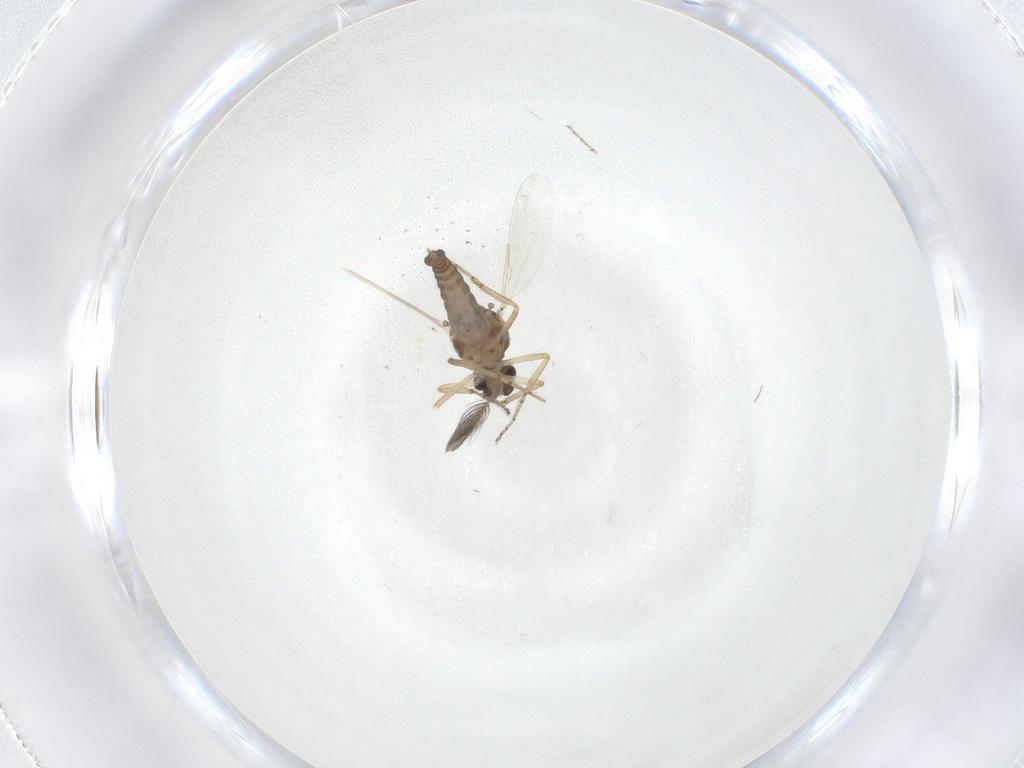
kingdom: Animalia
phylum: Arthropoda
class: Insecta
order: Diptera
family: Ceratopogonidae
